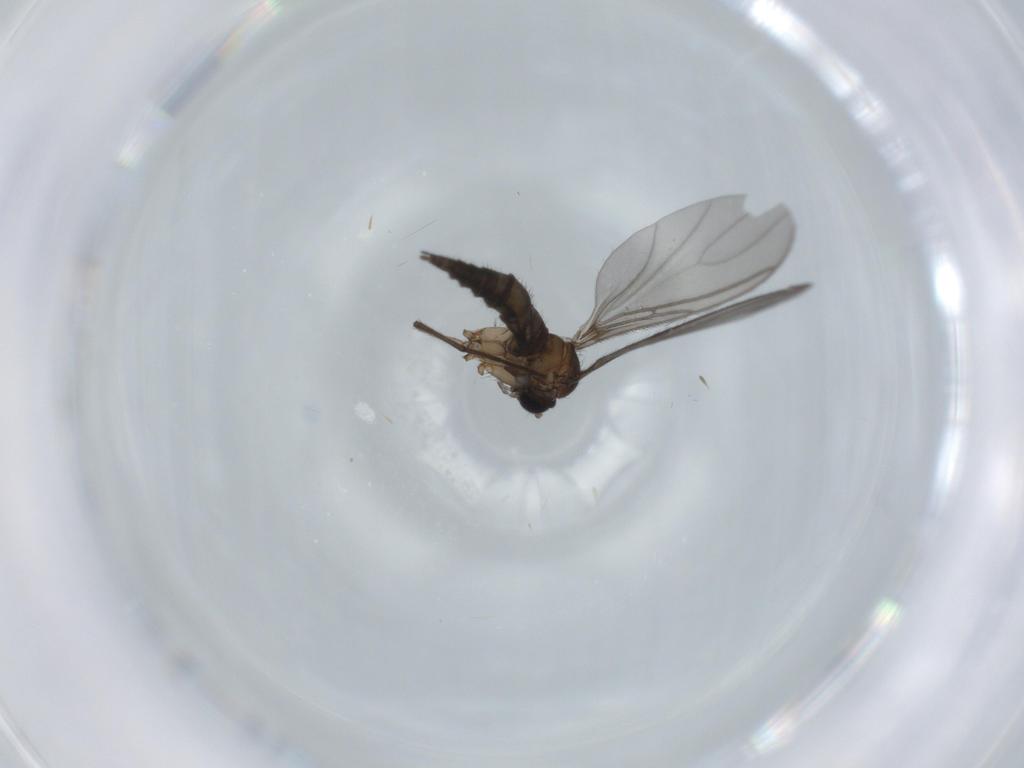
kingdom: Animalia
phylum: Arthropoda
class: Insecta
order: Diptera
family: Sciaridae
